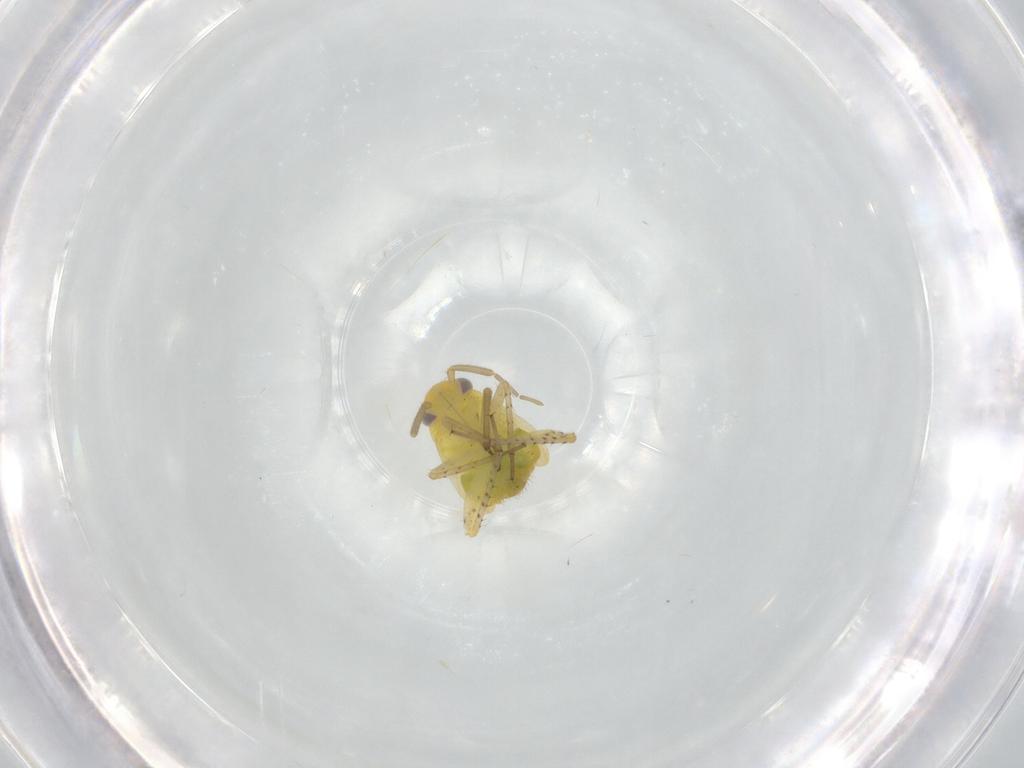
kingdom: Animalia
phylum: Arthropoda
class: Insecta
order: Hemiptera
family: Miridae
